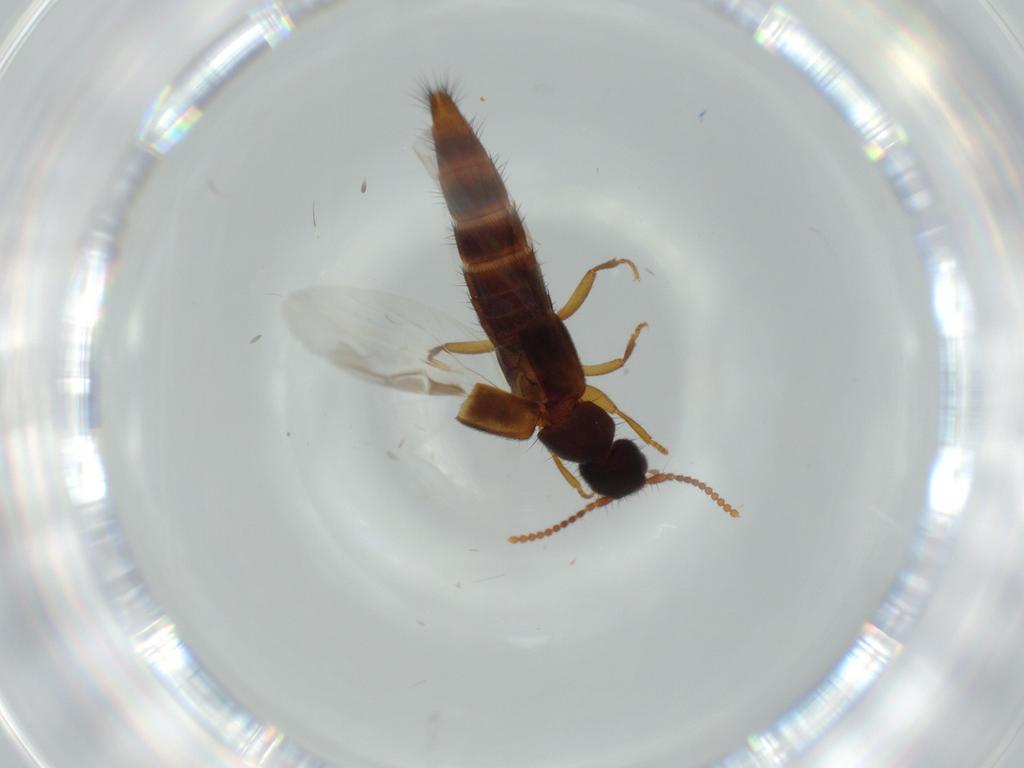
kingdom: Animalia
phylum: Arthropoda
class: Insecta
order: Coleoptera
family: Staphylinidae
